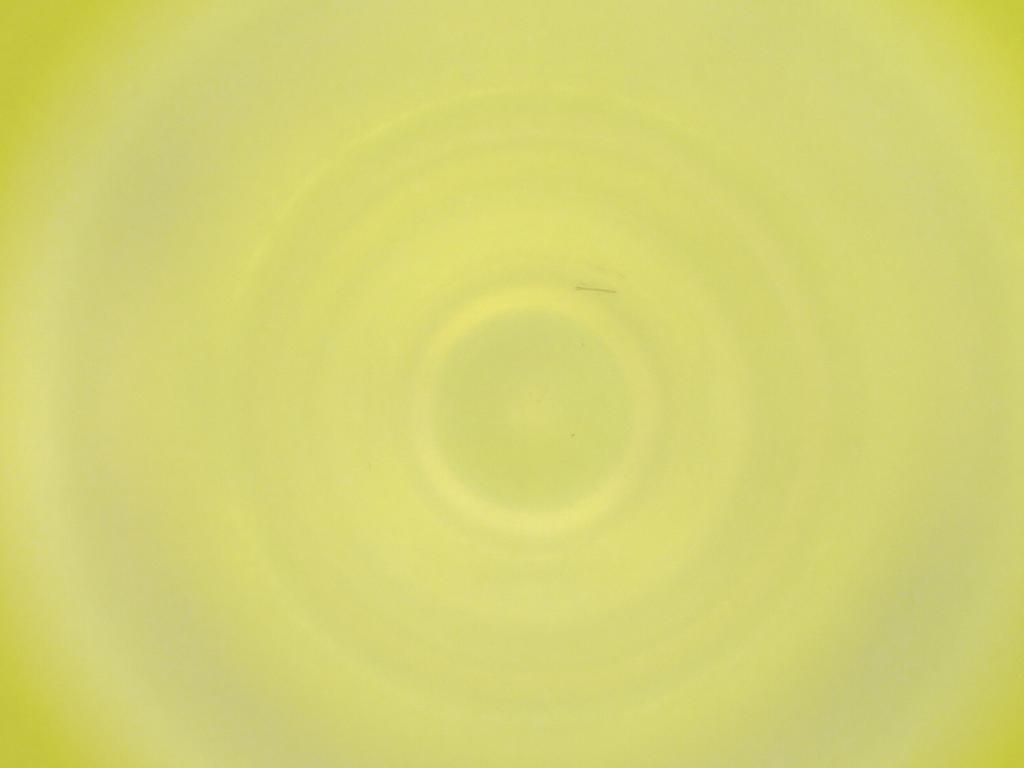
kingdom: Animalia
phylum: Arthropoda
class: Insecta
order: Diptera
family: Cecidomyiidae
